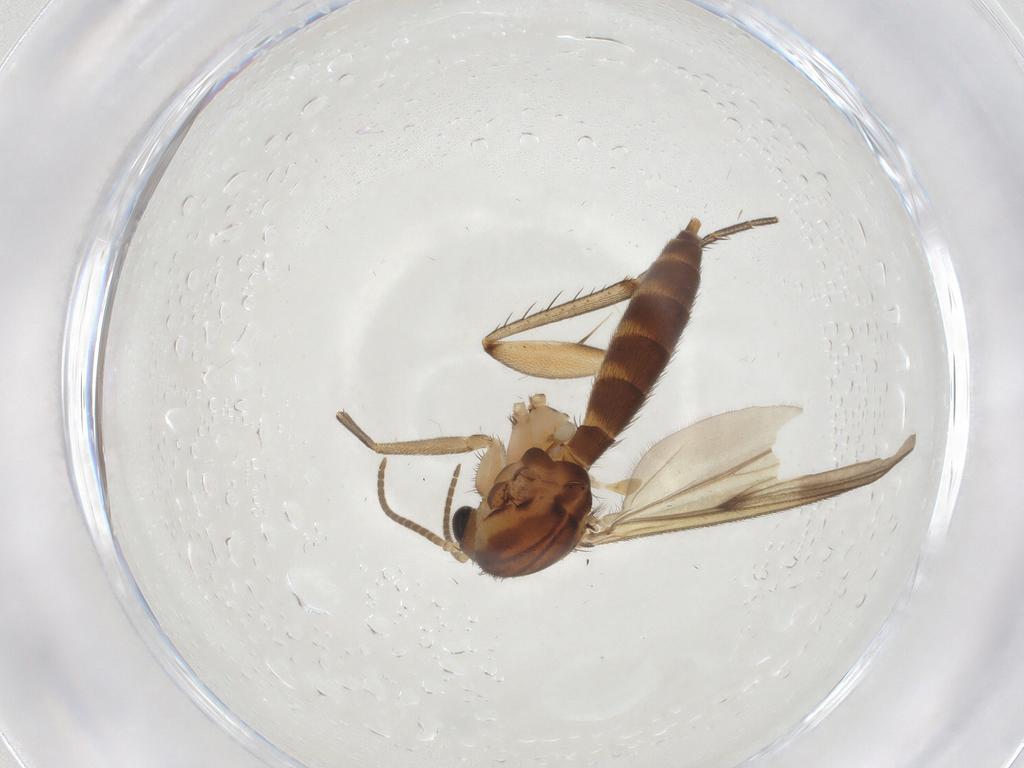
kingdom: Animalia
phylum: Arthropoda
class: Insecta
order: Diptera
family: Mycetophilidae
